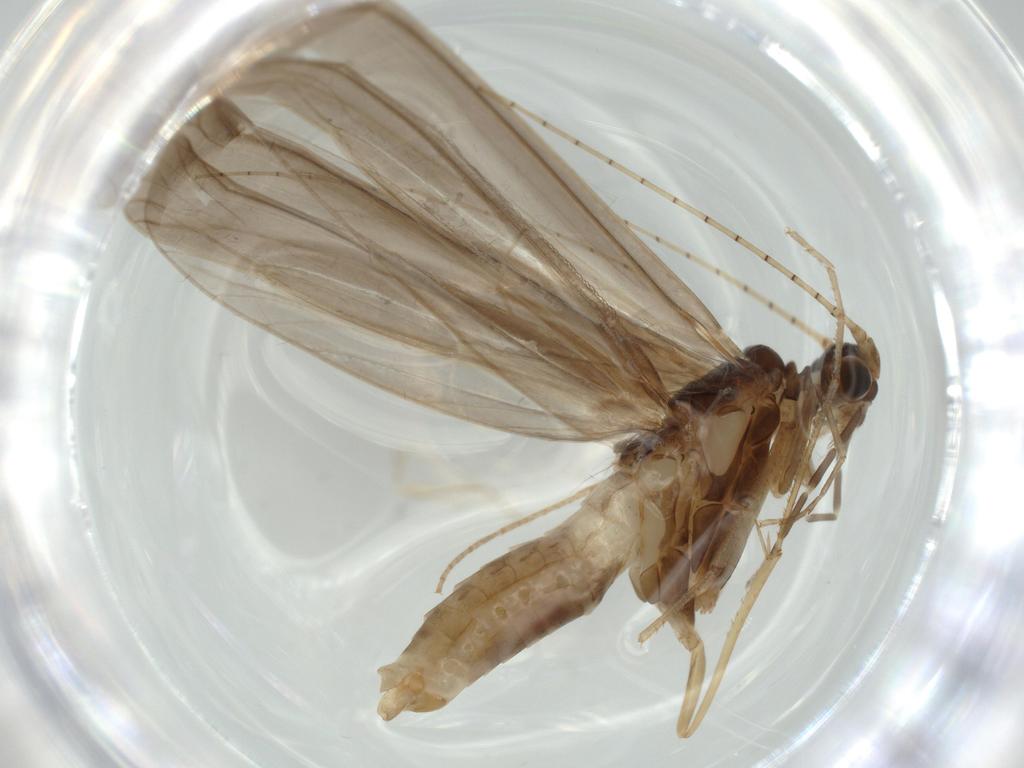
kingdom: Animalia
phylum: Arthropoda
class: Insecta
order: Trichoptera
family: Leptoceridae
